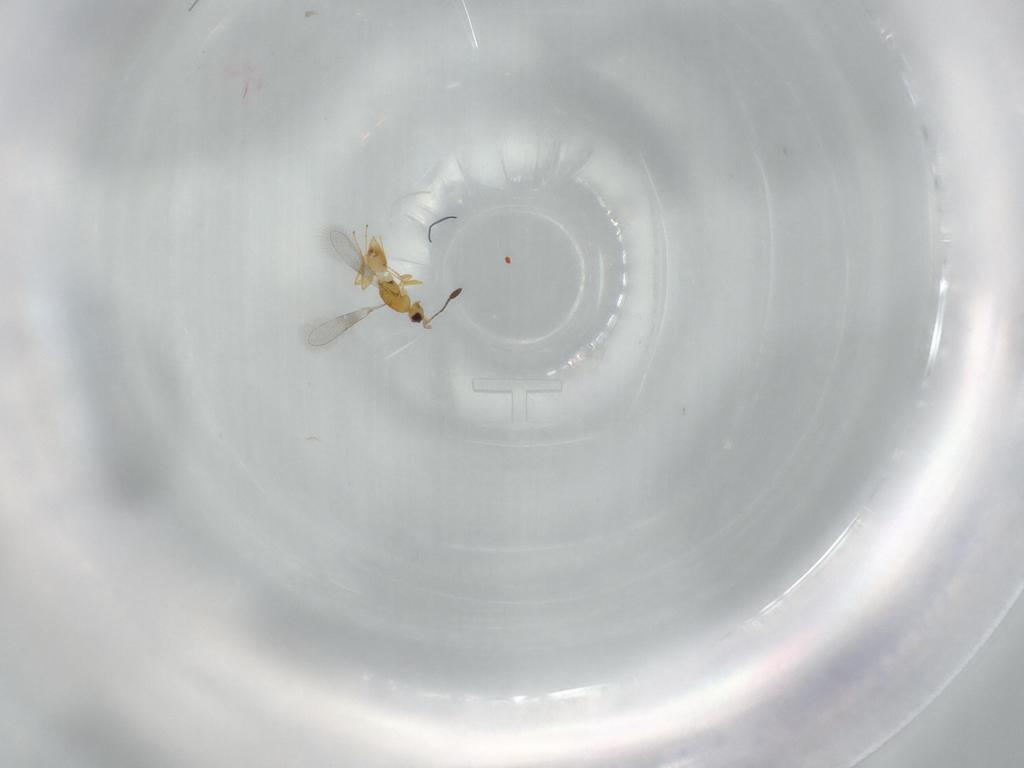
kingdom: Animalia
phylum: Arthropoda
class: Insecta
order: Hymenoptera
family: Mymaridae
